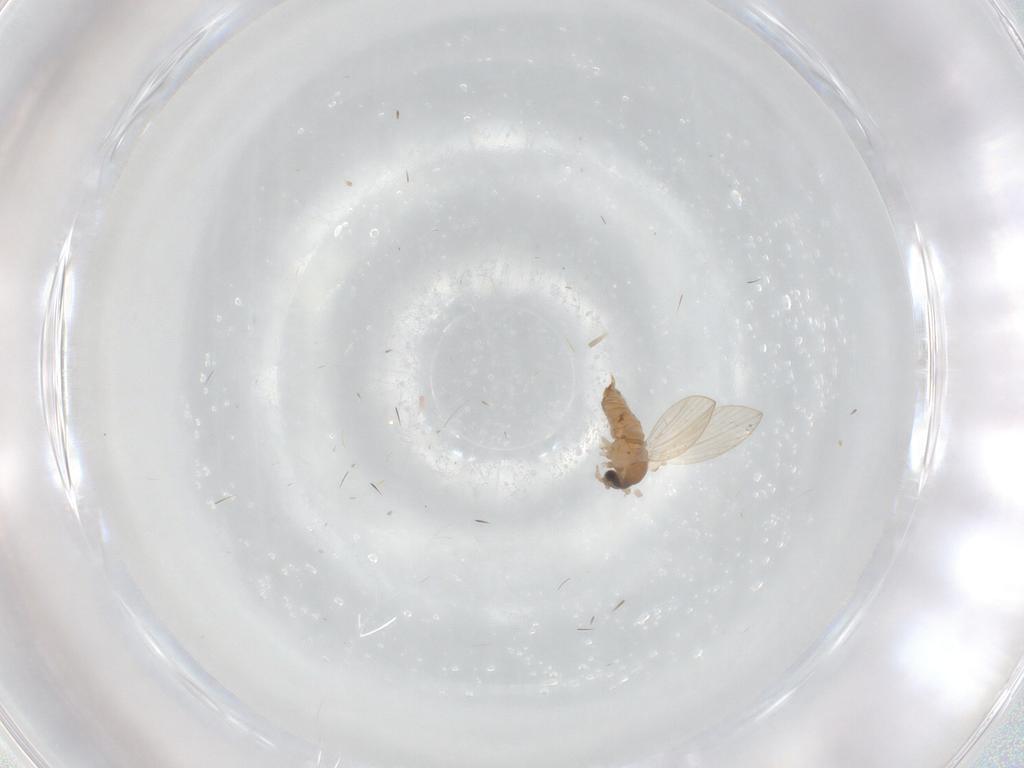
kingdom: Animalia
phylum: Arthropoda
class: Insecta
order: Diptera
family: Psychodidae
